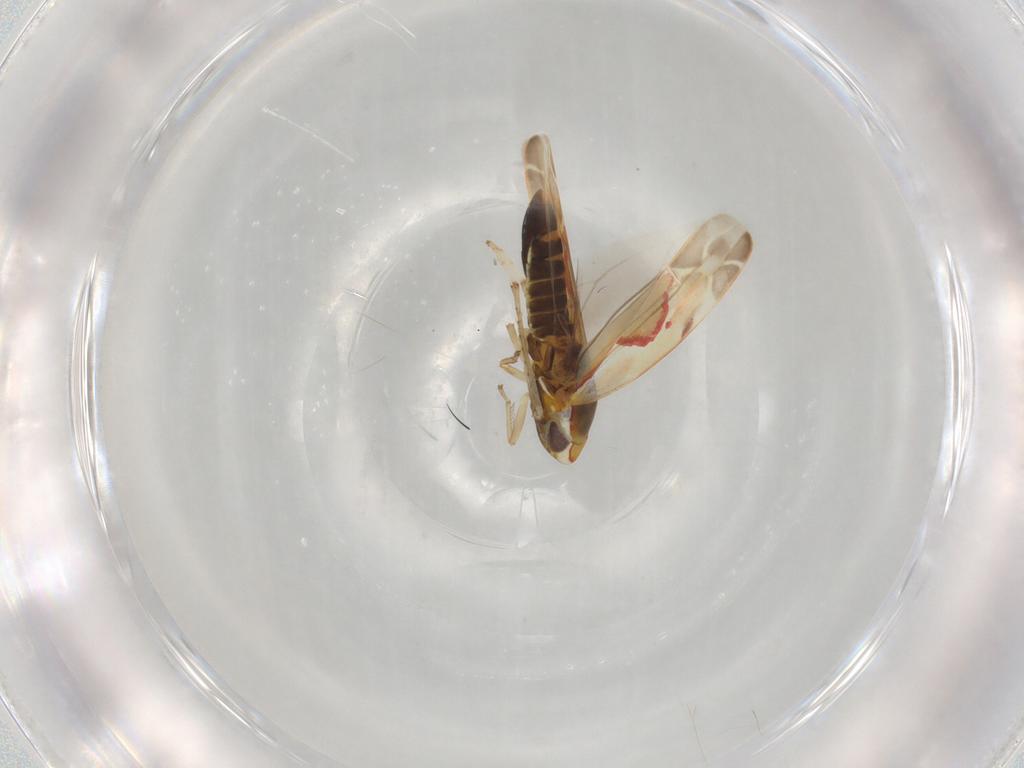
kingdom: Animalia
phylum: Arthropoda
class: Insecta
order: Hemiptera
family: Cicadellidae
